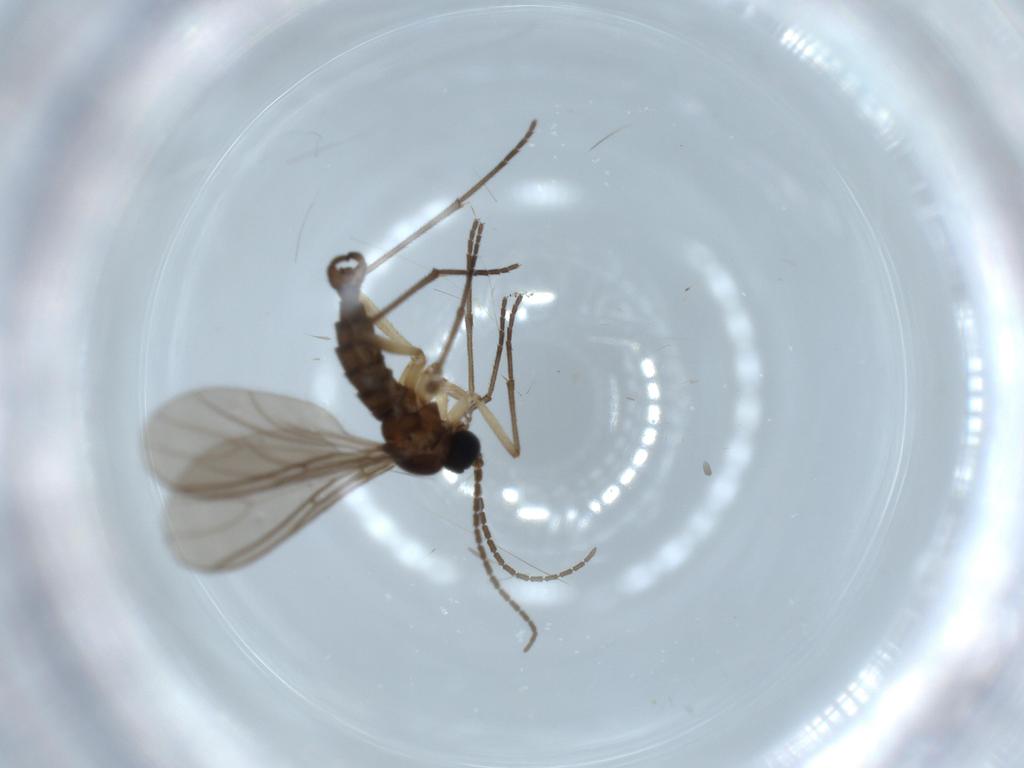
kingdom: Animalia
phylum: Arthropoda
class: Insecta
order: Diptera
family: Sciaridae
